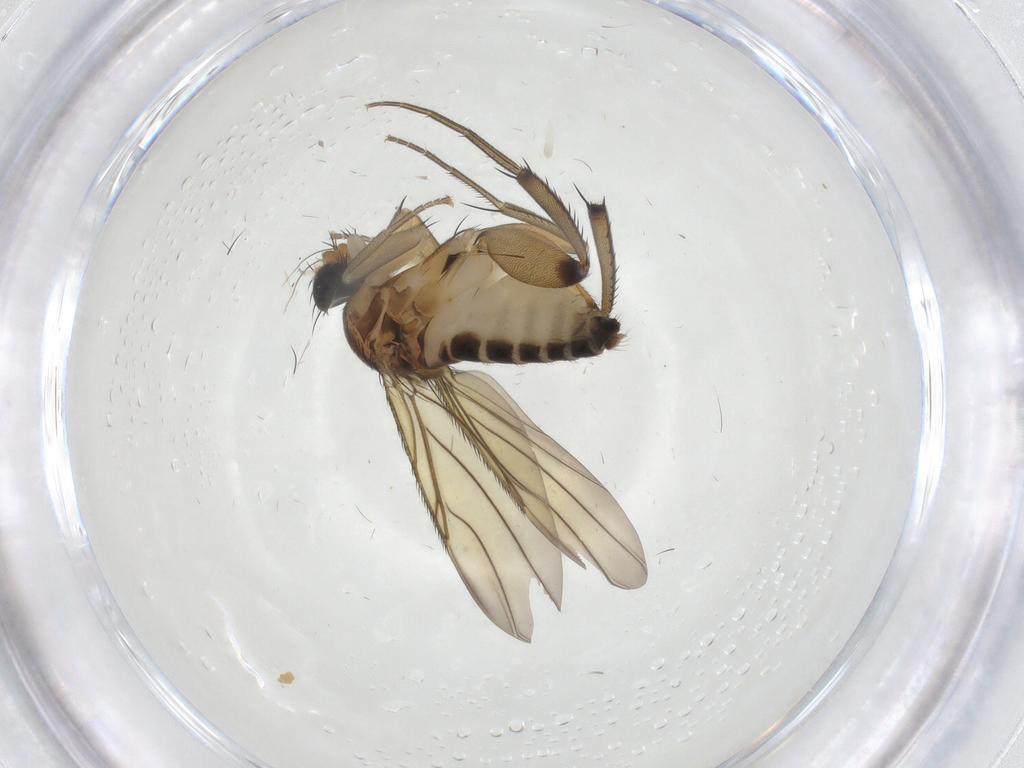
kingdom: Animalia
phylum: Arthropoda
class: Insecta
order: Diptera
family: Phoridae
